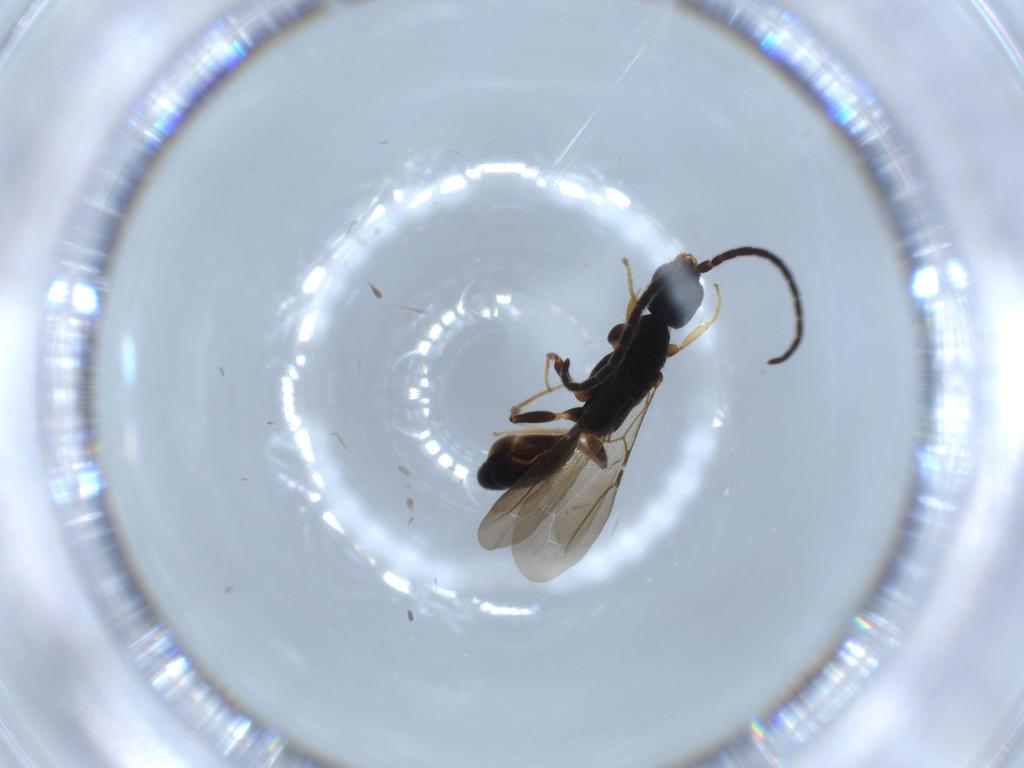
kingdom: Animalia
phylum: Arthropoda
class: Insecta
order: Hymenoptera
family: Bethylidae
